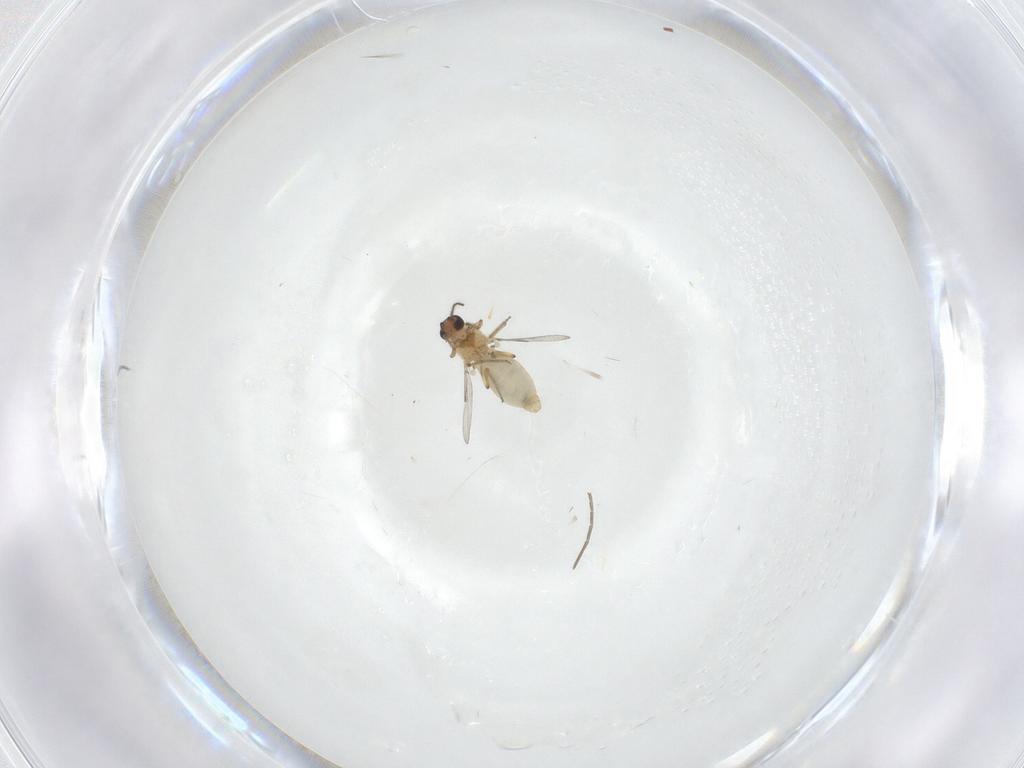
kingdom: Animalia
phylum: Arthropoda
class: Insecta
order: Diptera
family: Ceratopogonidae
